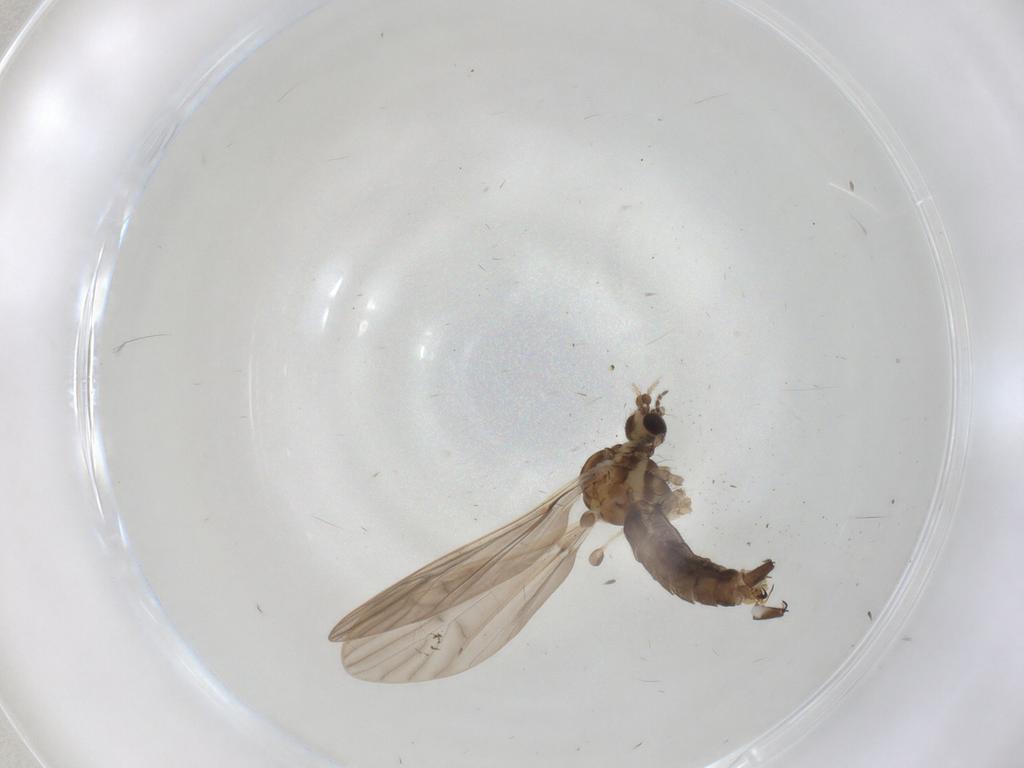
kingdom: Animalia
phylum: Arthropoda
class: Insecta
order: Diptera
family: Limoniidae
